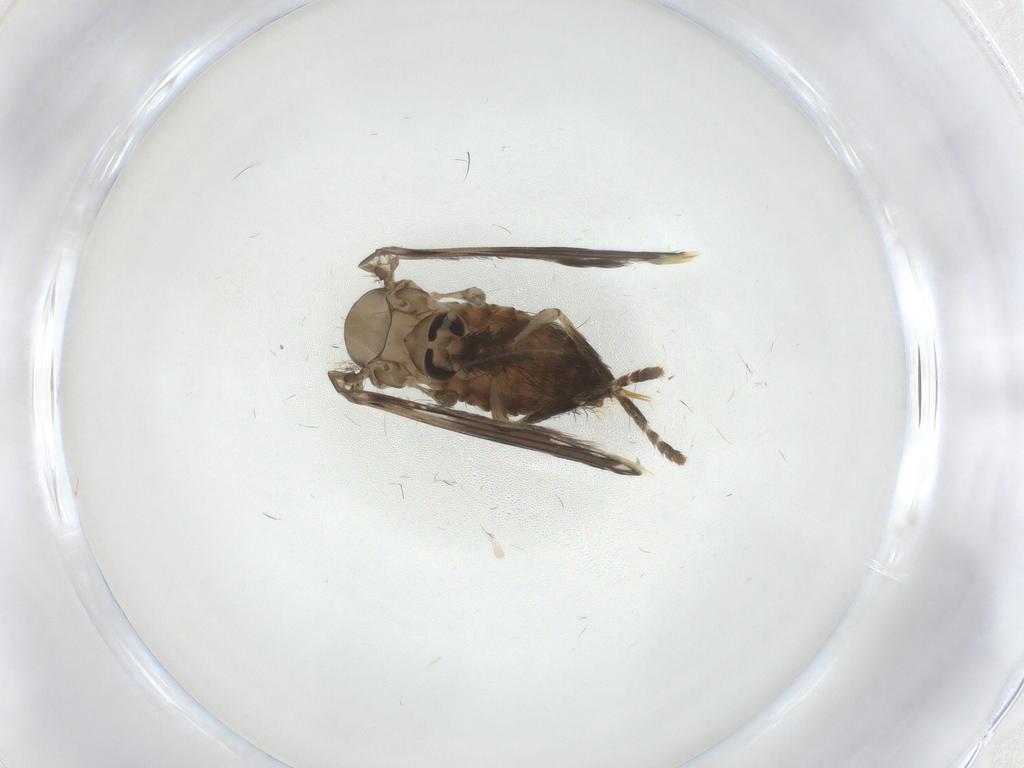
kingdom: Animalia
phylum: Arthropoda
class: Insecta
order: Diptera
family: Psychodidae
